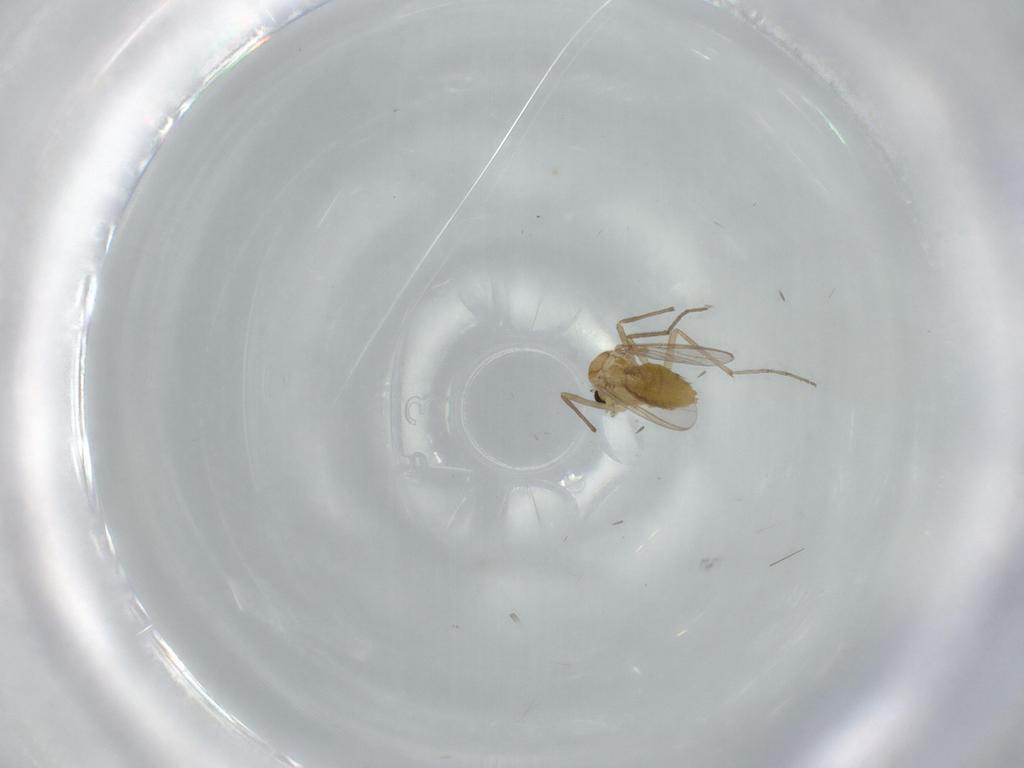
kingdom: Animalia
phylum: Arthropoda
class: Insecta
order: Diptera
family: Chironomidae
